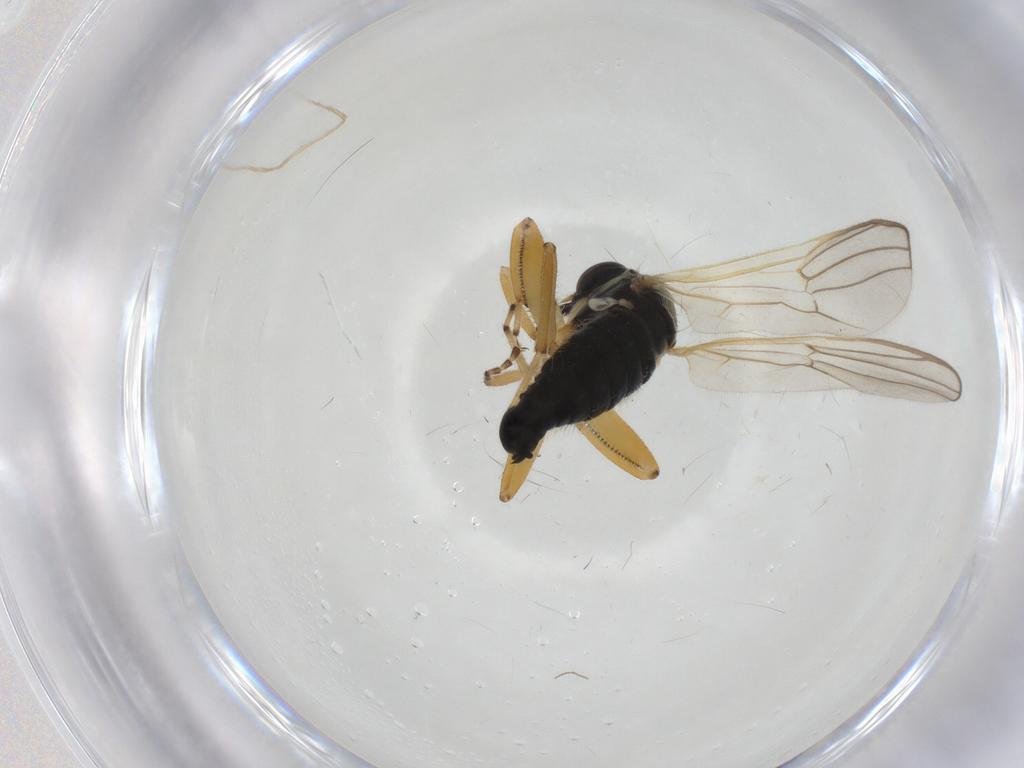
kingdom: Animalia
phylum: Arthropoda
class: Insecta
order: Diptera
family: Hybotidae
